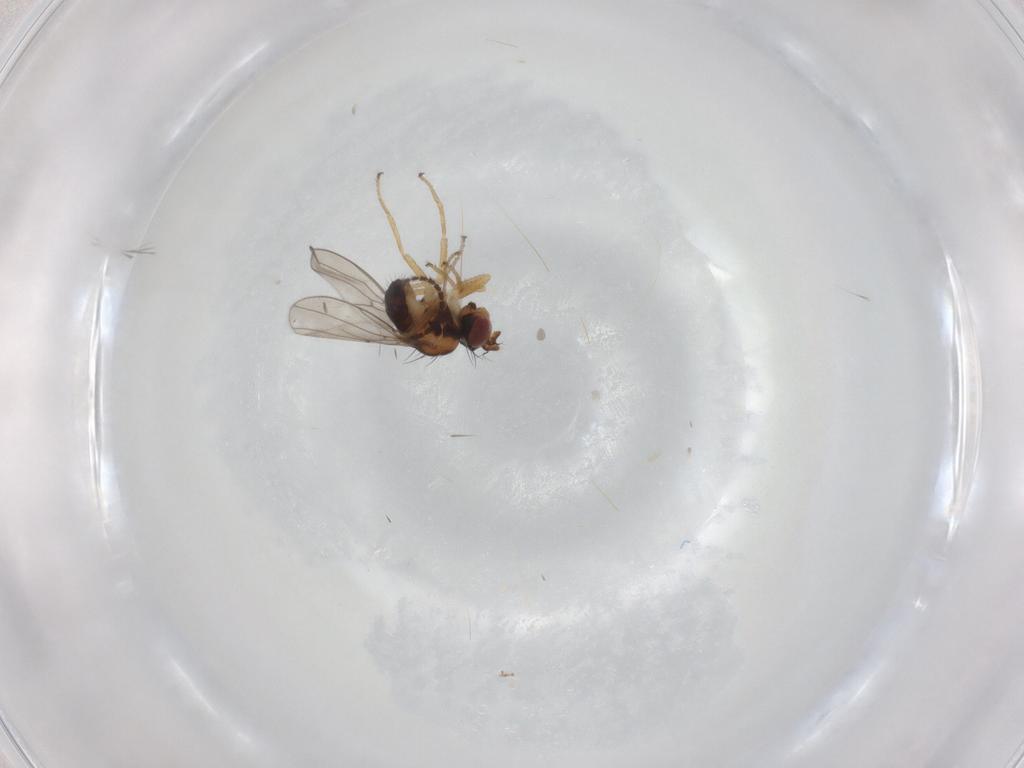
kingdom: Animalia
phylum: Arthropoda
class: Insecta
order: Diptera
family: Ephydridae
